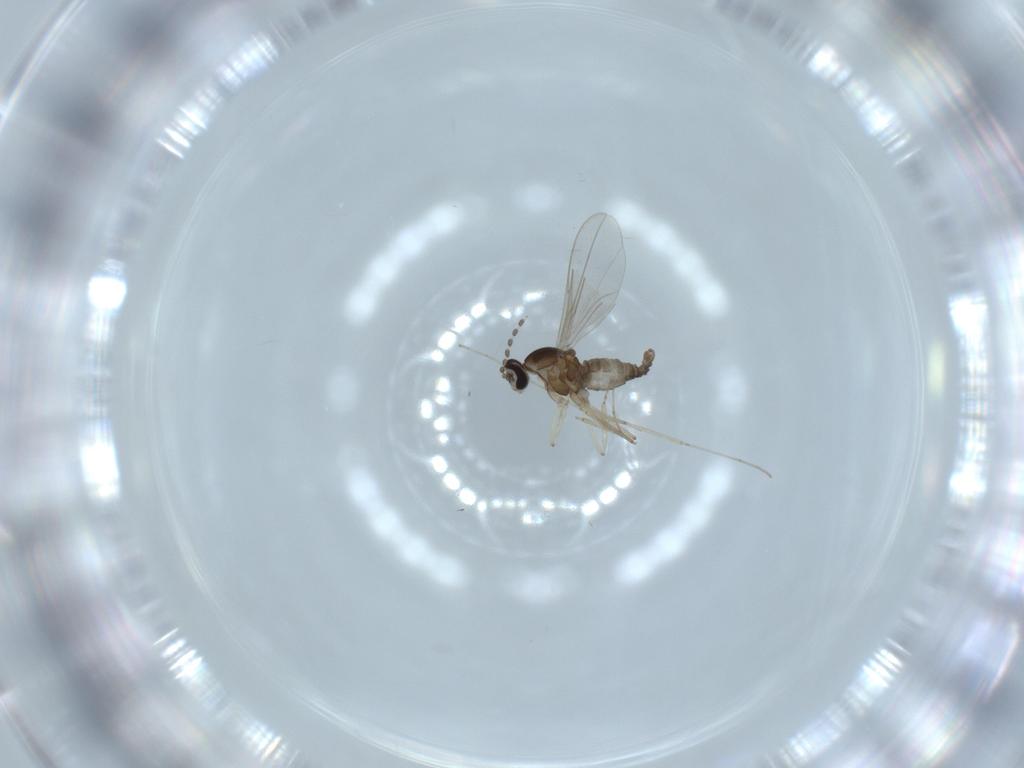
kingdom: Animalia
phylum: Arthropoda
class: Insecta
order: Diptera
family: Cecidomyiidae
